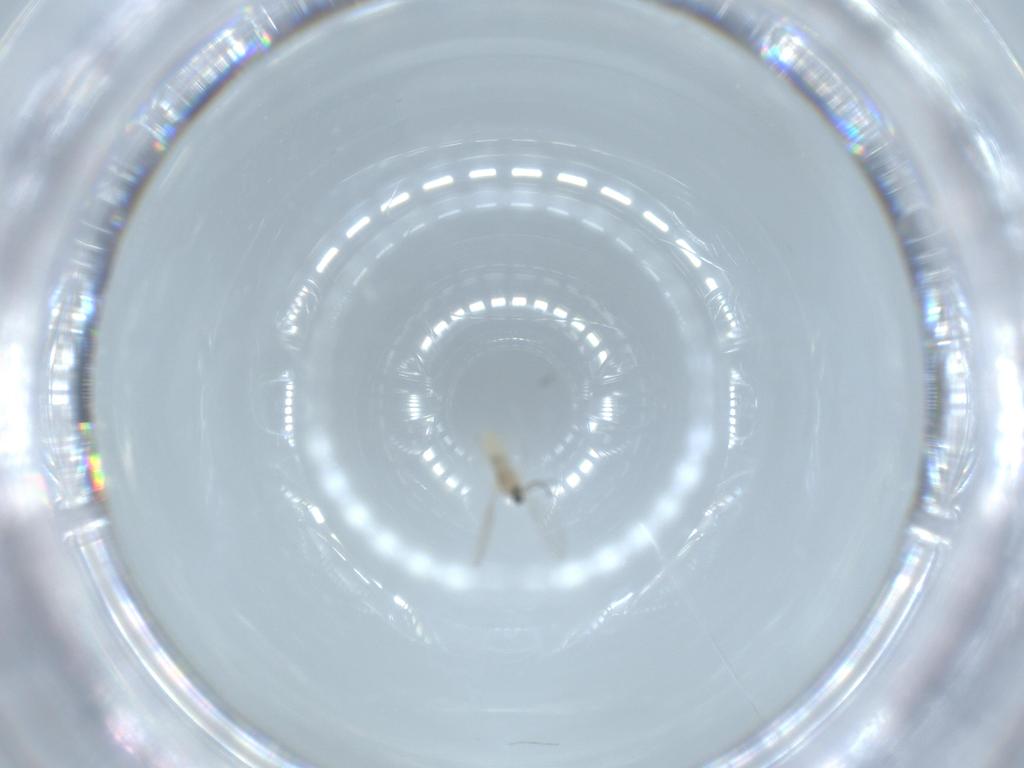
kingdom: Animalia
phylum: Arthropoda
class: Insecta
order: Diptera
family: Cecidomyiidae
